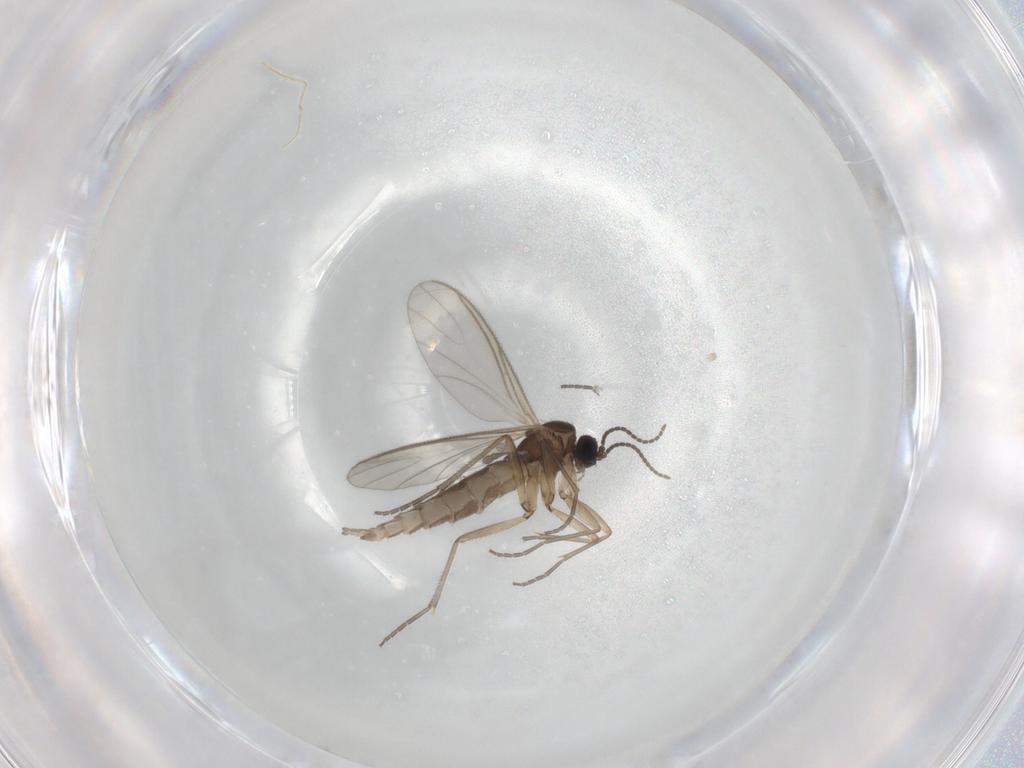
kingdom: Animalia
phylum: Arthropoda
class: Insecta
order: Diptera
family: Sciaridae
